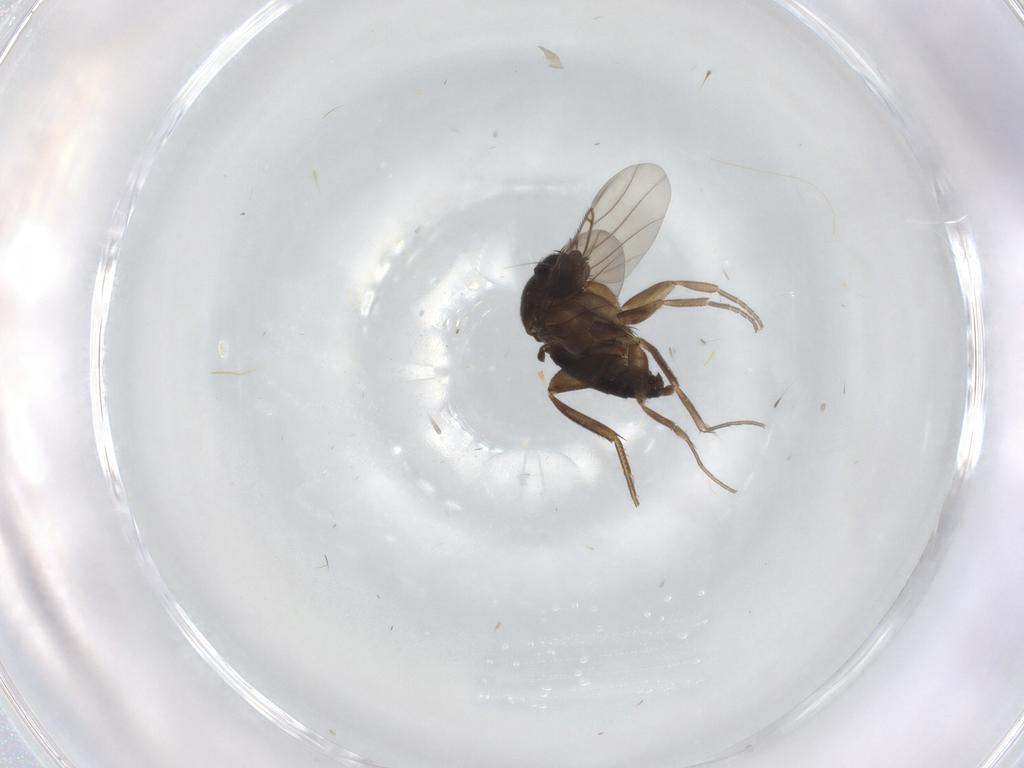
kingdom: Animalia
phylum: Arthropoda
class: Insecta
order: Diptera
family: Phoridae
